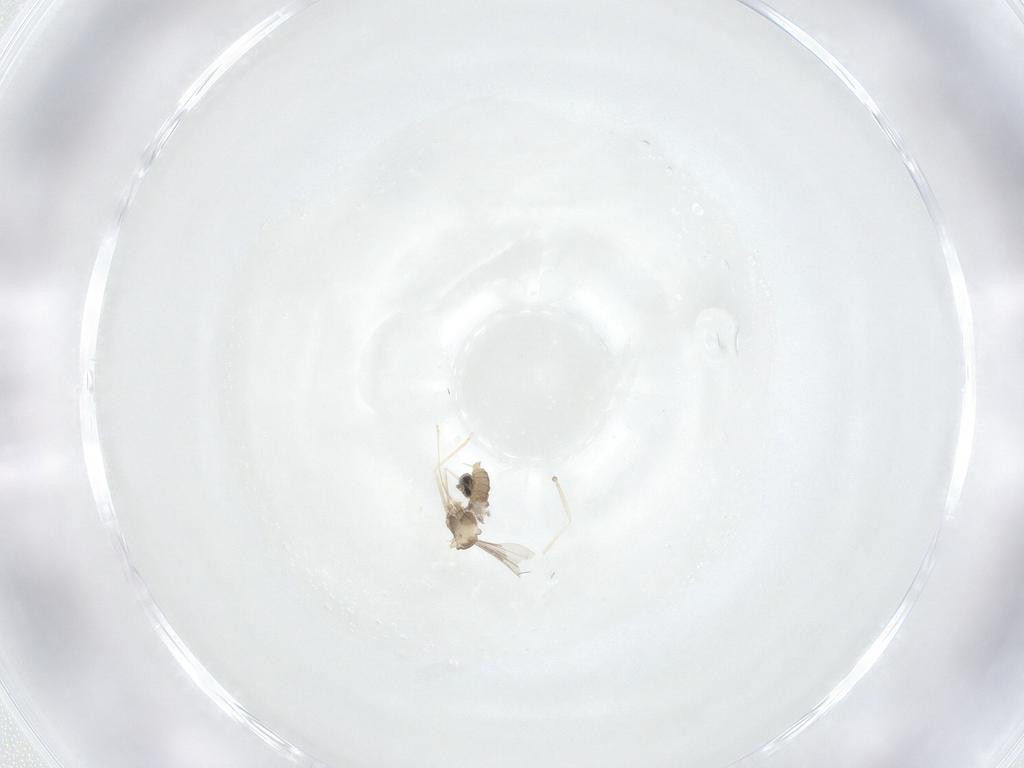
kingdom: Animalia
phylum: Arthropoda
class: Insecta
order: Diptera
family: Cecidomyiidae
